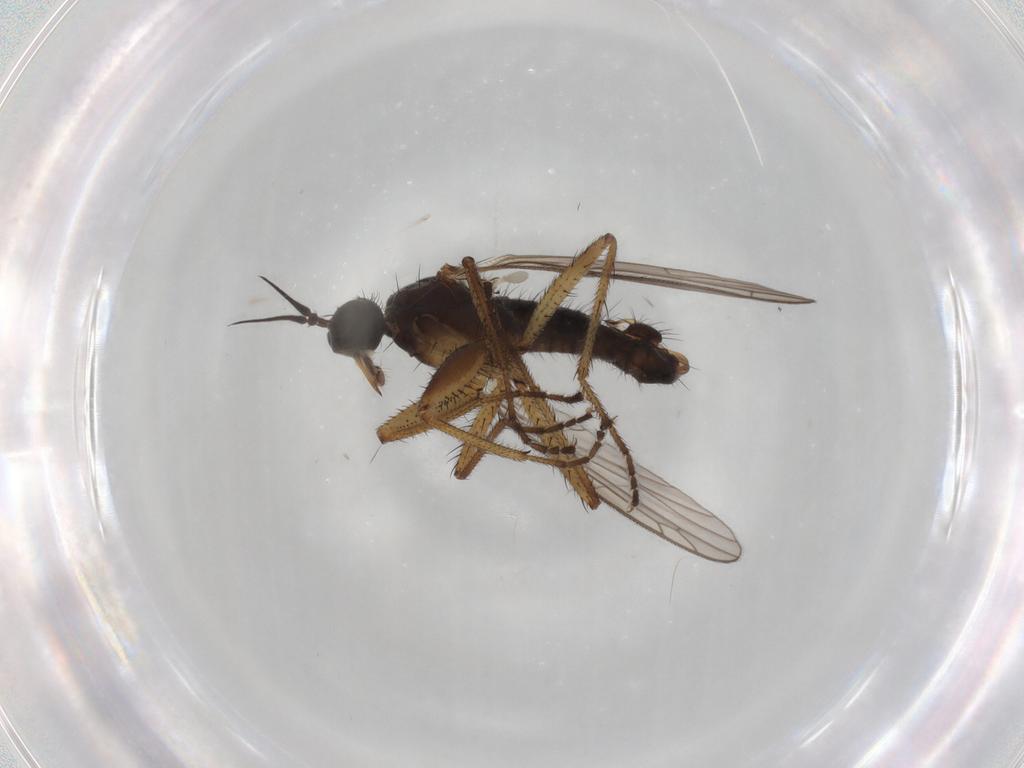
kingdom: Animalia
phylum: Arthropoda
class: Insecta
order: Diptera
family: Empididae
